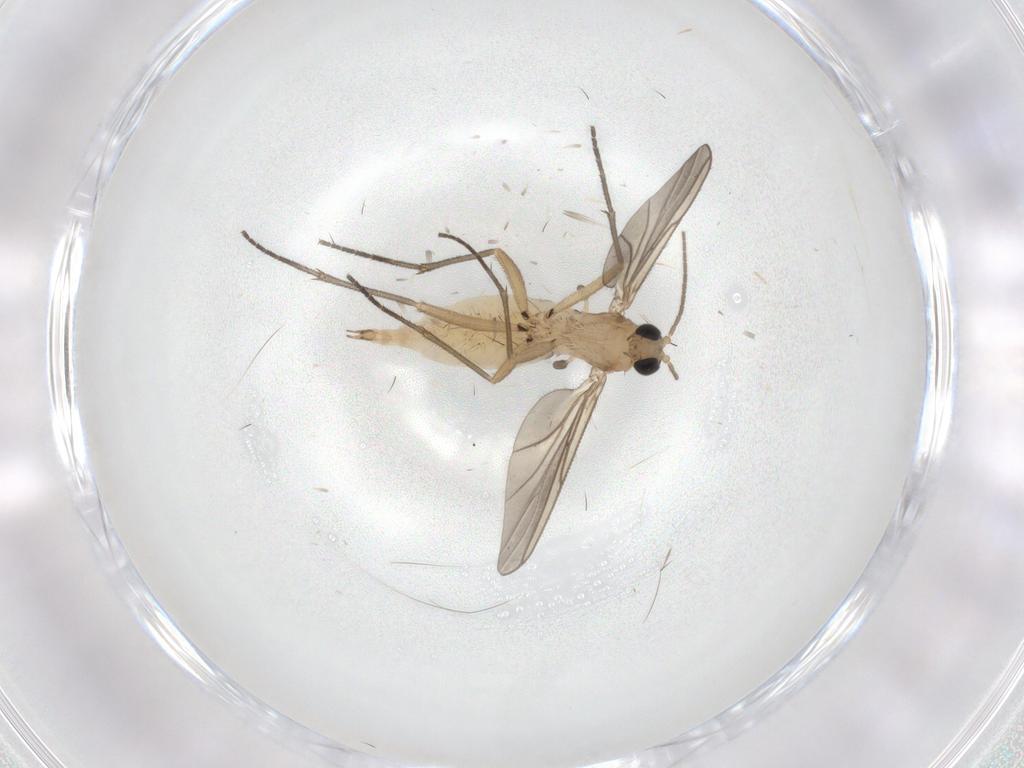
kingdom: Animalia
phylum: Arthropoda
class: Insecta
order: Diptera
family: Sciaridae
